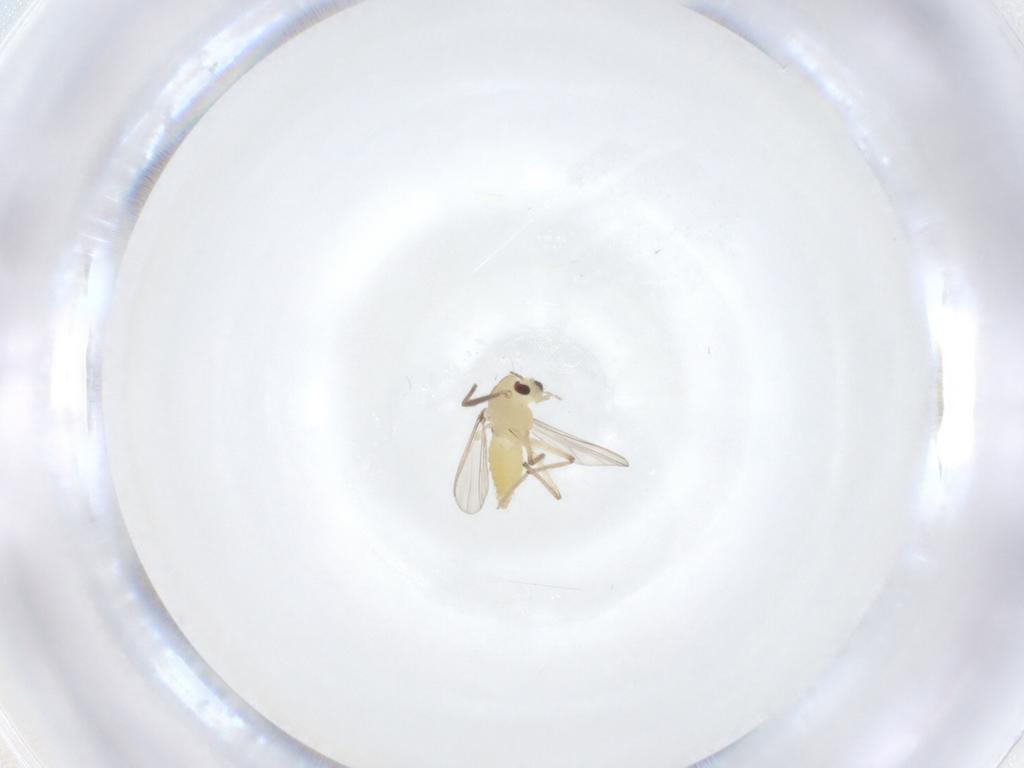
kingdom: Animalia
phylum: Arthropoda
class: Insecta
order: Diptera
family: Chironomidae
